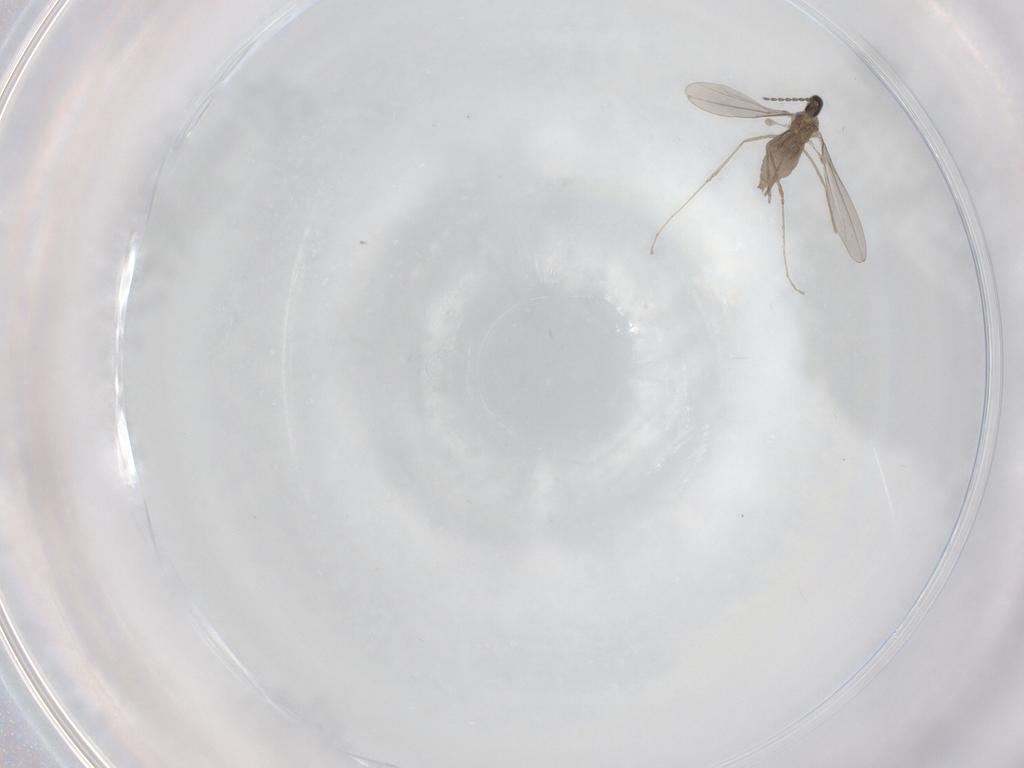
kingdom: Animalia
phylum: Arthropoda
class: Insecta
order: Diptera
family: Cecidomyiidae
